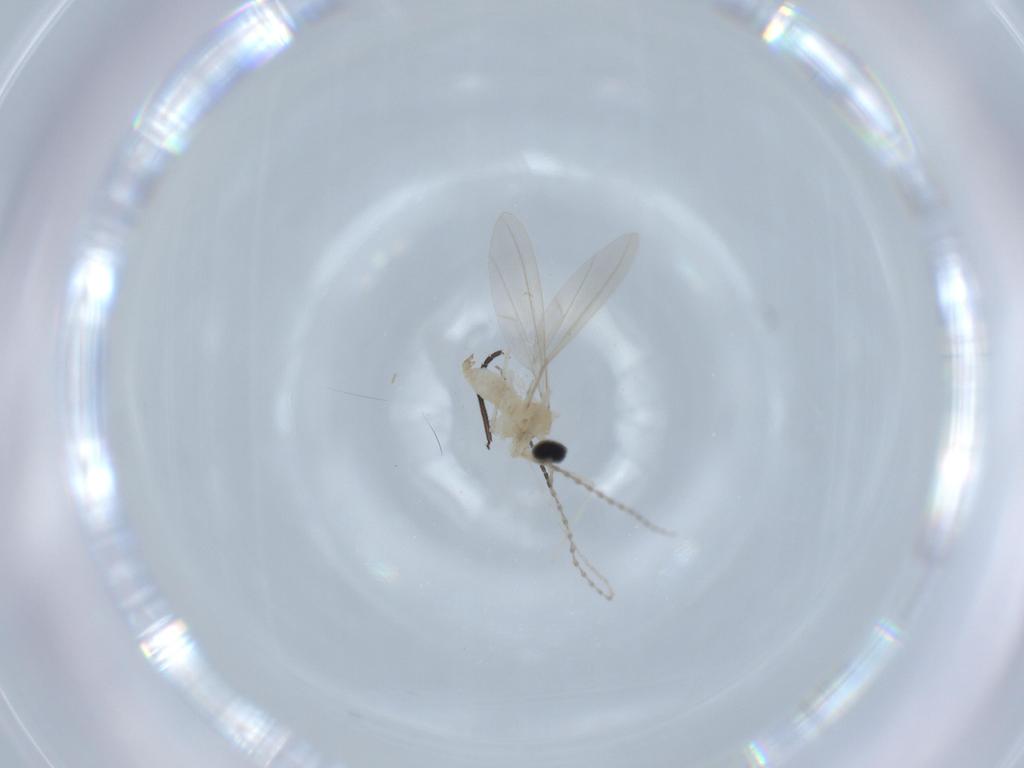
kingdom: Animalia
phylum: Arthropoda
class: Insecta
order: Diptera
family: Cecidomyiidae
